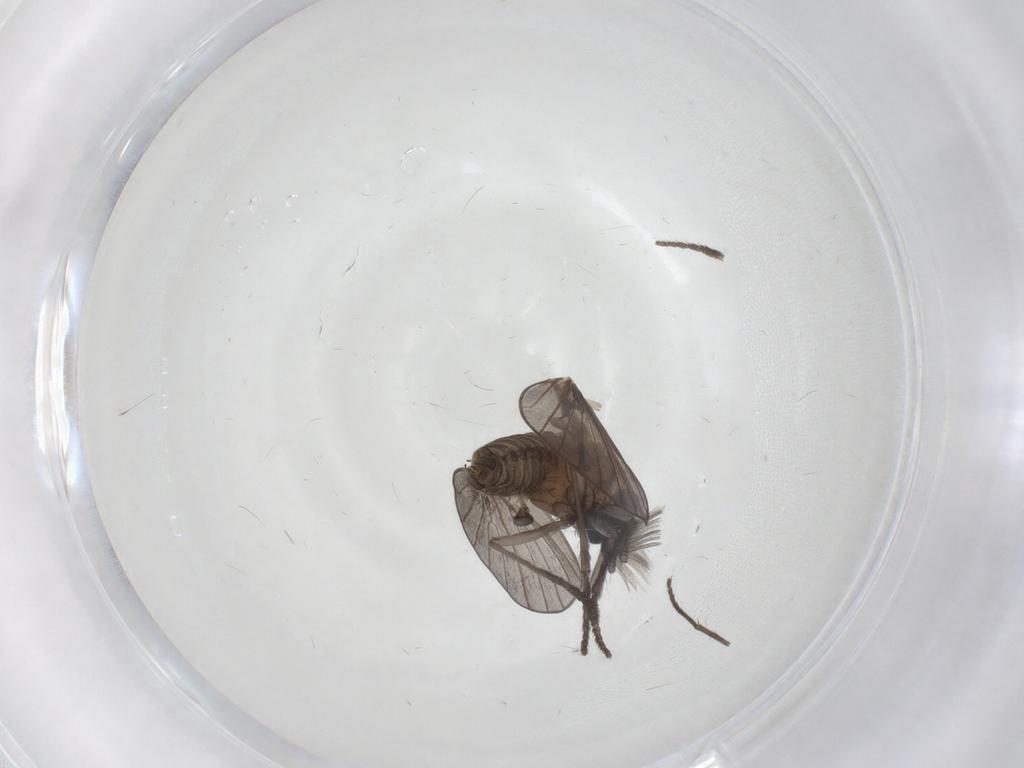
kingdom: Animalia
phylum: Arthropoda
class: Insecta
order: Diptera
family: Psychodidae
